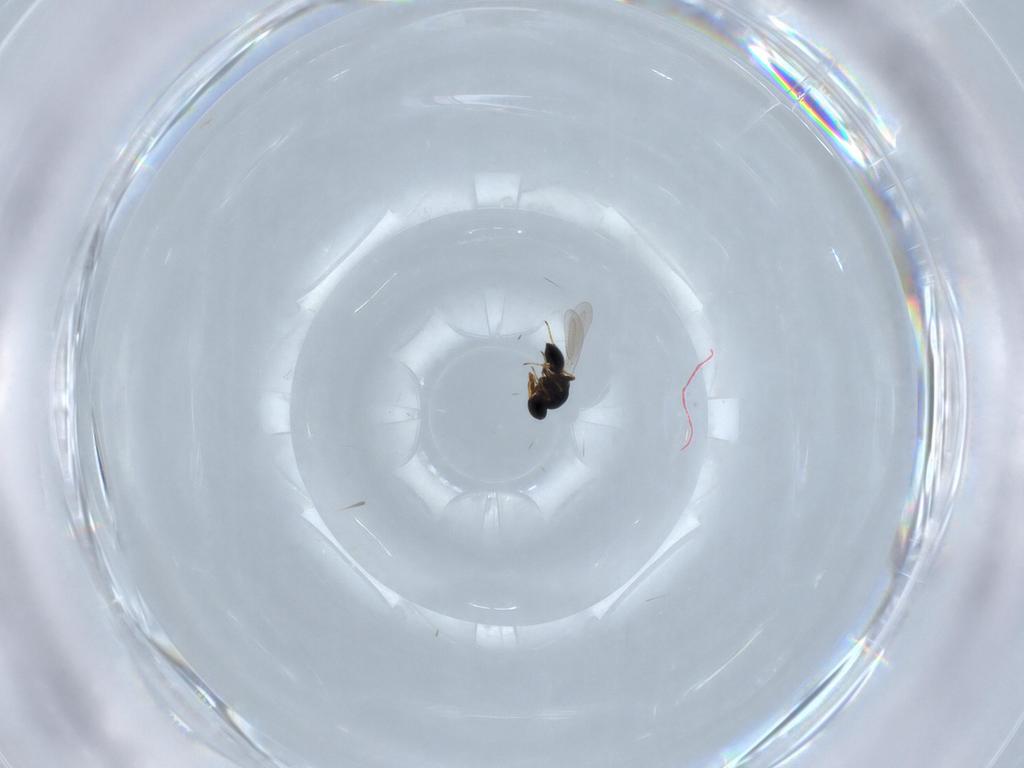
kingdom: Animalia
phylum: Arthropoda
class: Insecta
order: Hymenoptera
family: Platygastridae
